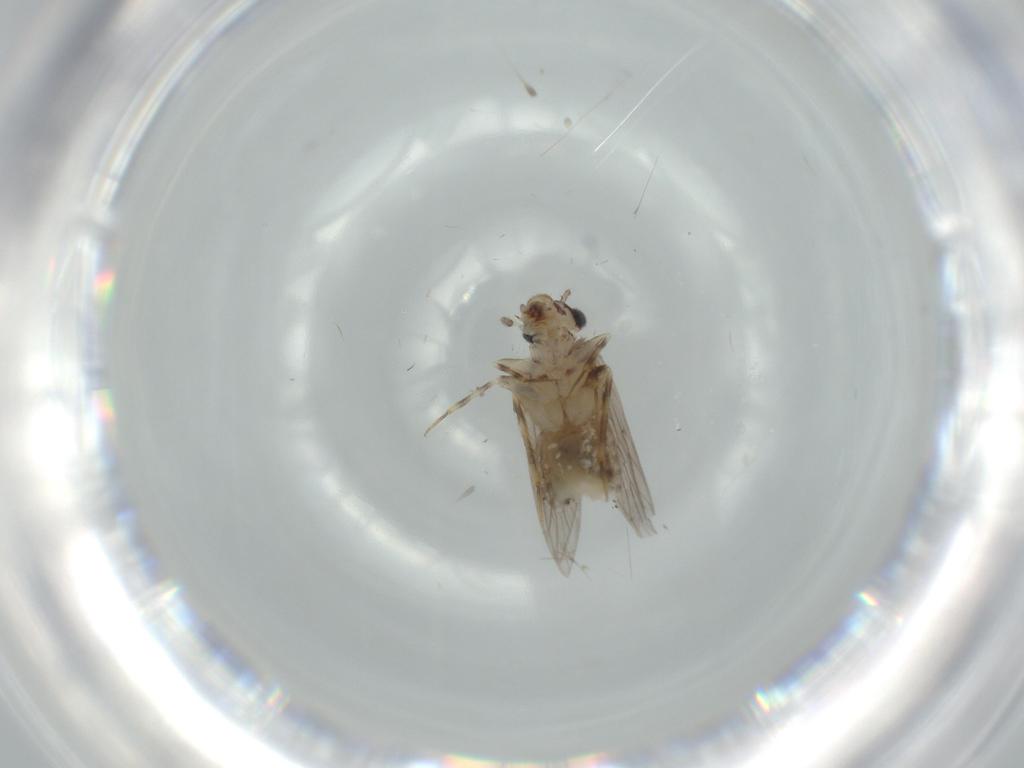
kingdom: Animalia
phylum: Arthropoda
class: Insecta
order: Psocodea
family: Lepidopsocidae
